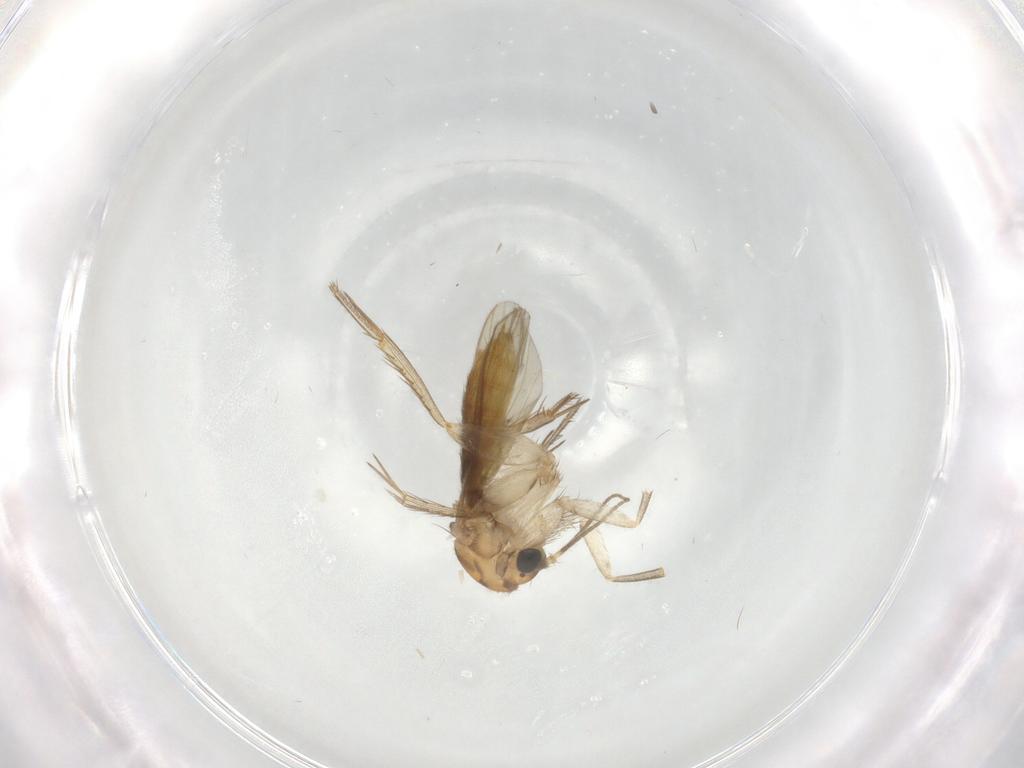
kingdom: Animalia
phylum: Arthropoda
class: Insecta
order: Diptera
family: Mycetophilidae
